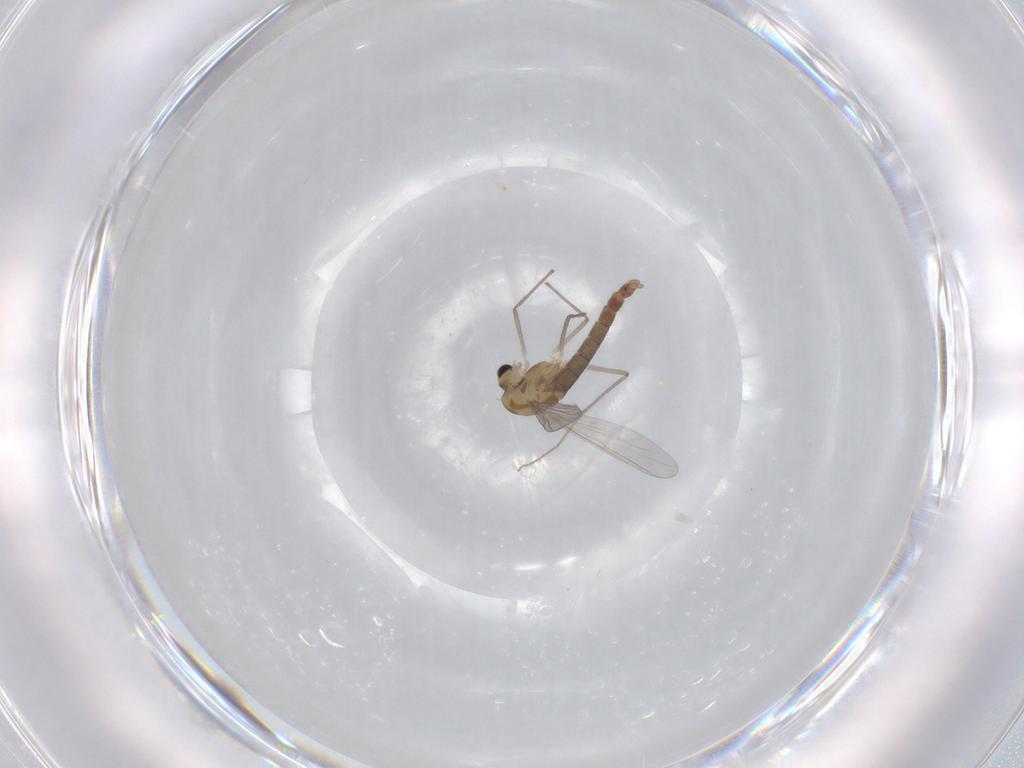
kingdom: Animalia
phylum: Arthropoda
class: Insecta
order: Diptera
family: Chironomidae
